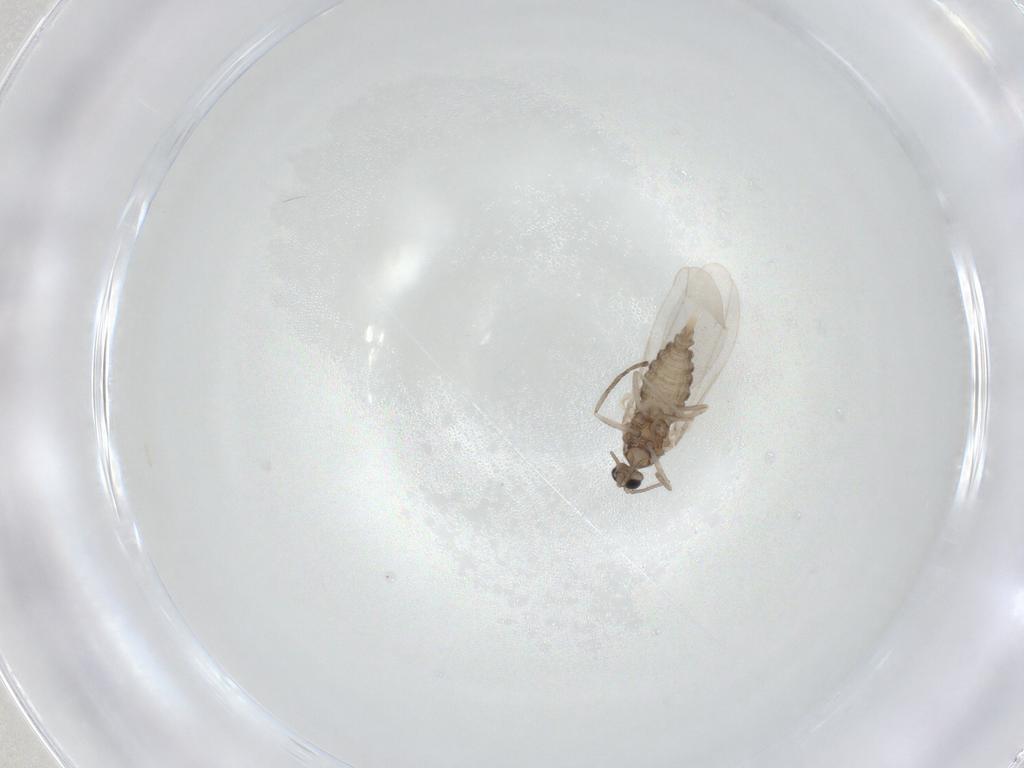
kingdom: Animalia
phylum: Arthropoda
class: Insecta
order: Diptera
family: Cecidomyiidae
